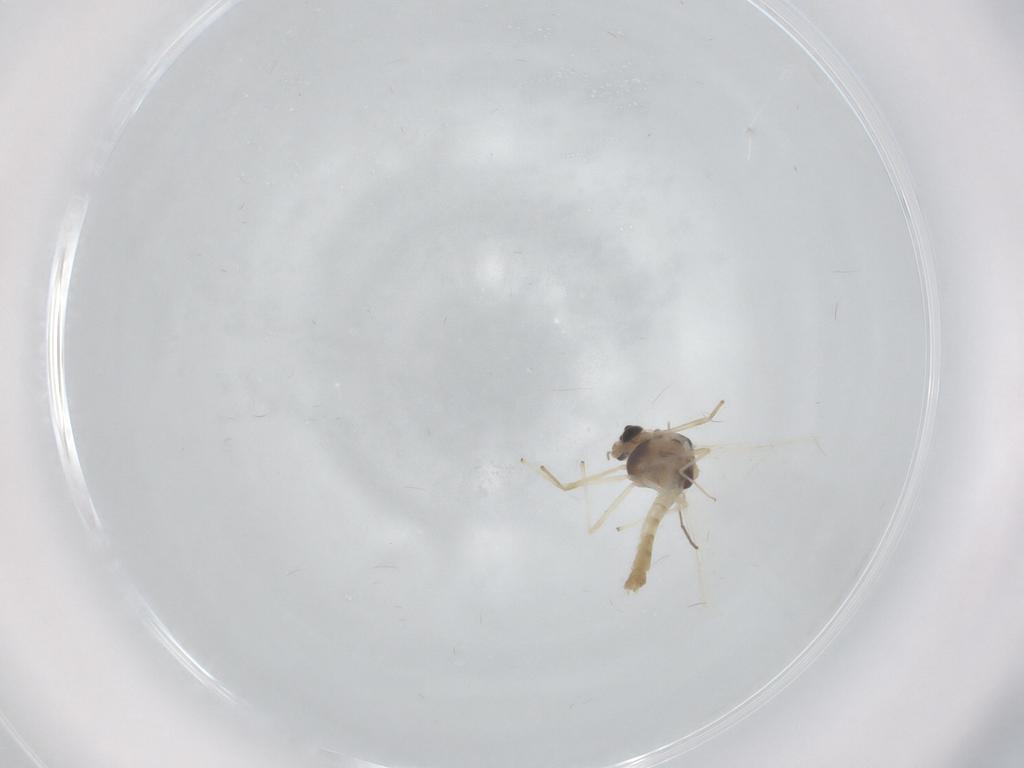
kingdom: Animalia
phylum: Arthropoda
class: Insecta
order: Diptera
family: Chironomidae
